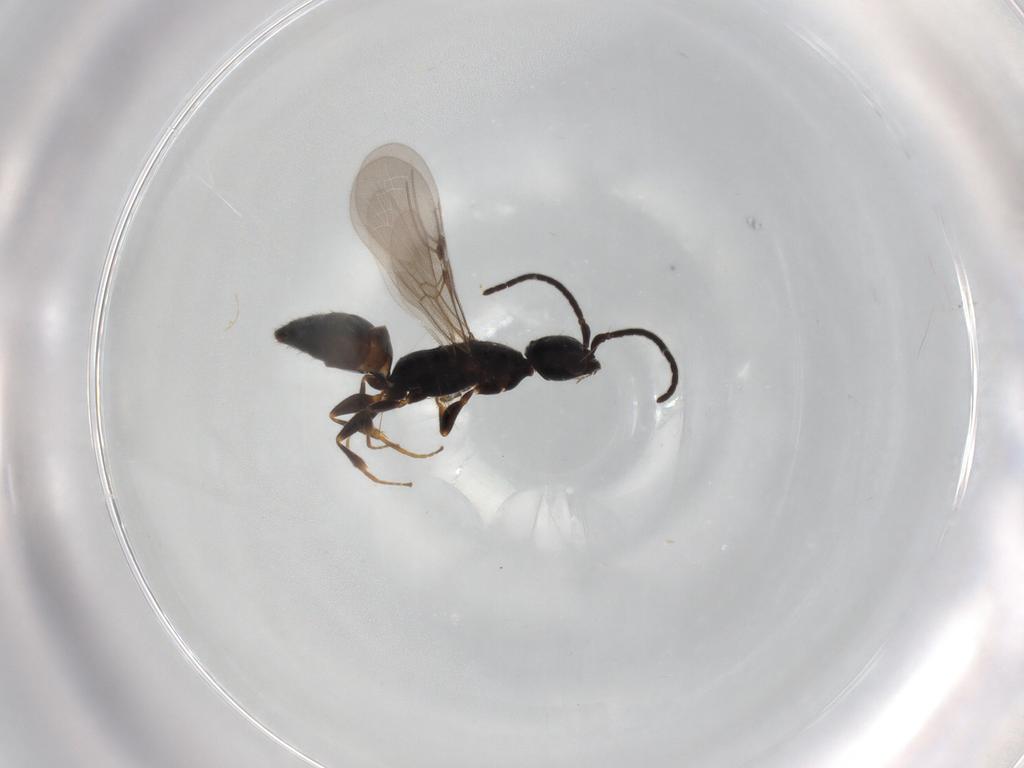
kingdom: Animalia
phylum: Arthropoda
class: Insecta
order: Hymenoptera
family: Bethylidae
